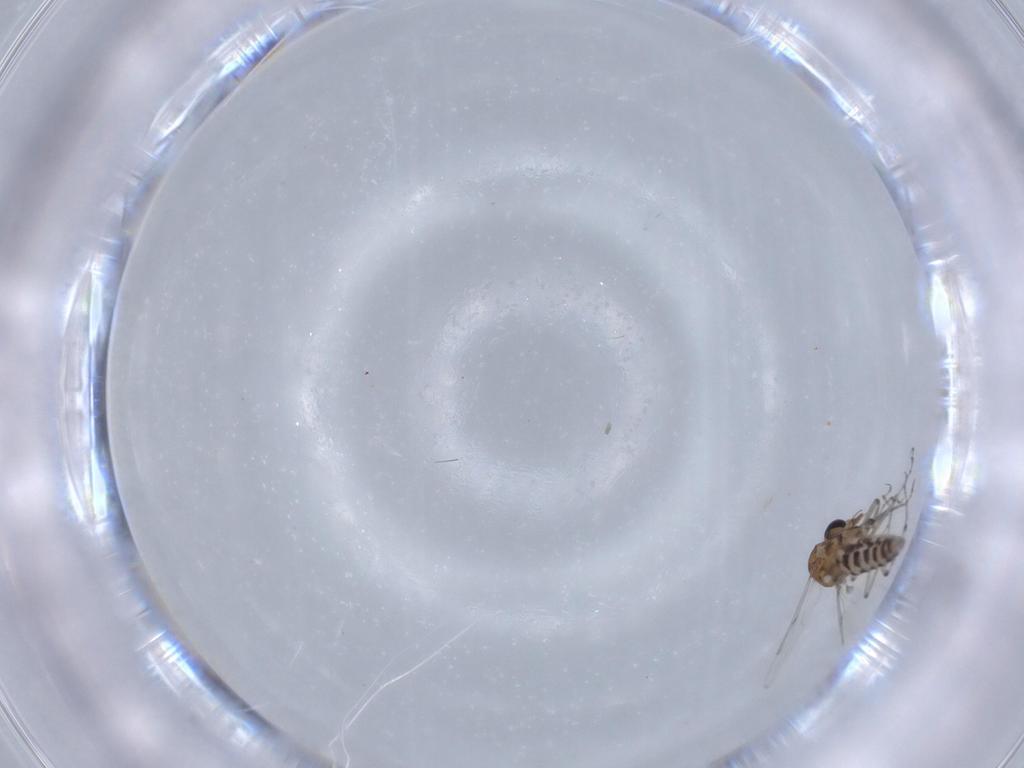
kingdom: Animalia
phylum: Arthropoda
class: Insecta
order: Diptera
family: Ceratopogonidae
